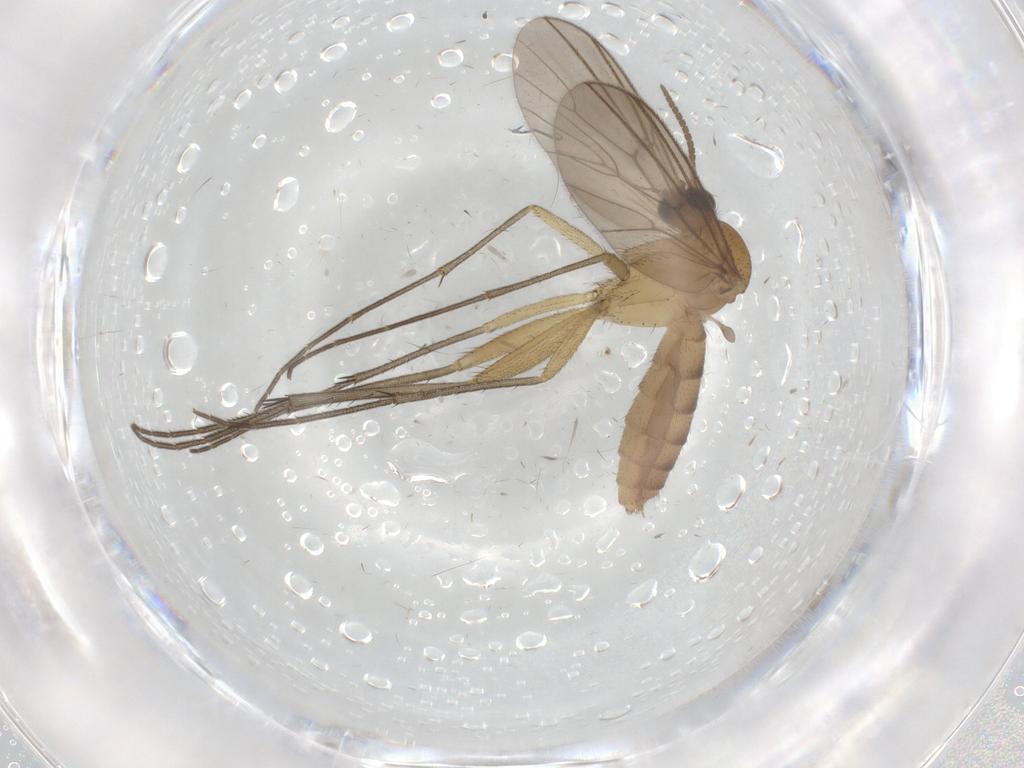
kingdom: Animalia
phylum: Arthropoda
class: Insecta
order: Diptera
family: Mycetophilidae
